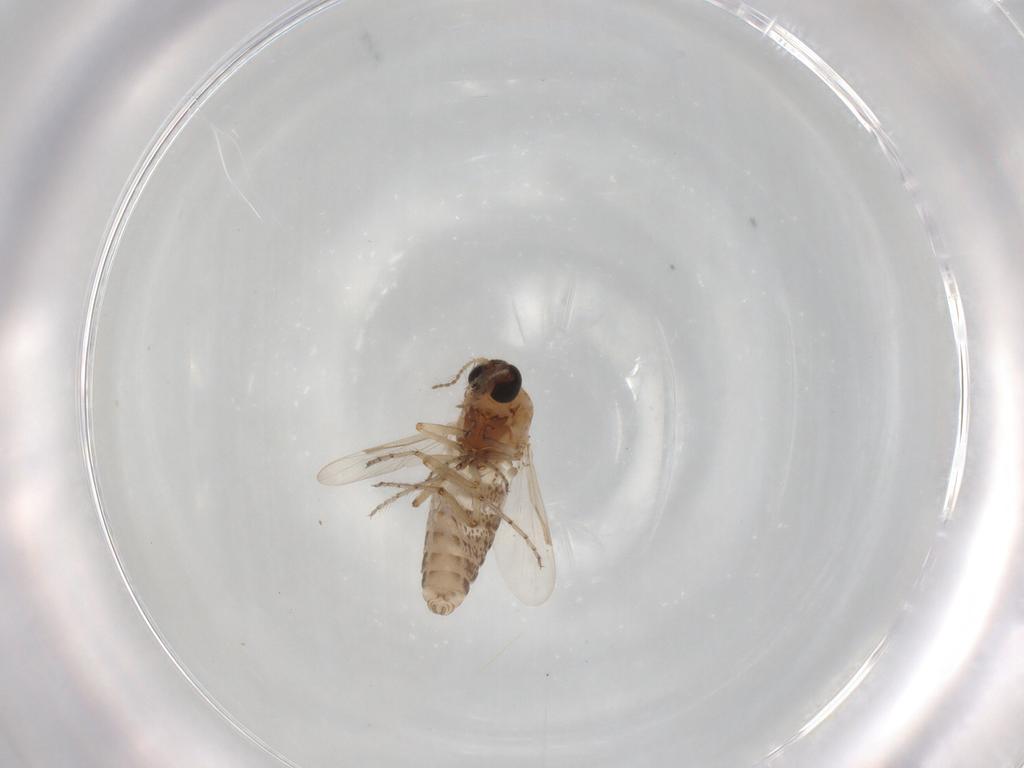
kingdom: Animalia
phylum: Arthropoda
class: Insecta
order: Diptera
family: Ceratopogonidae
